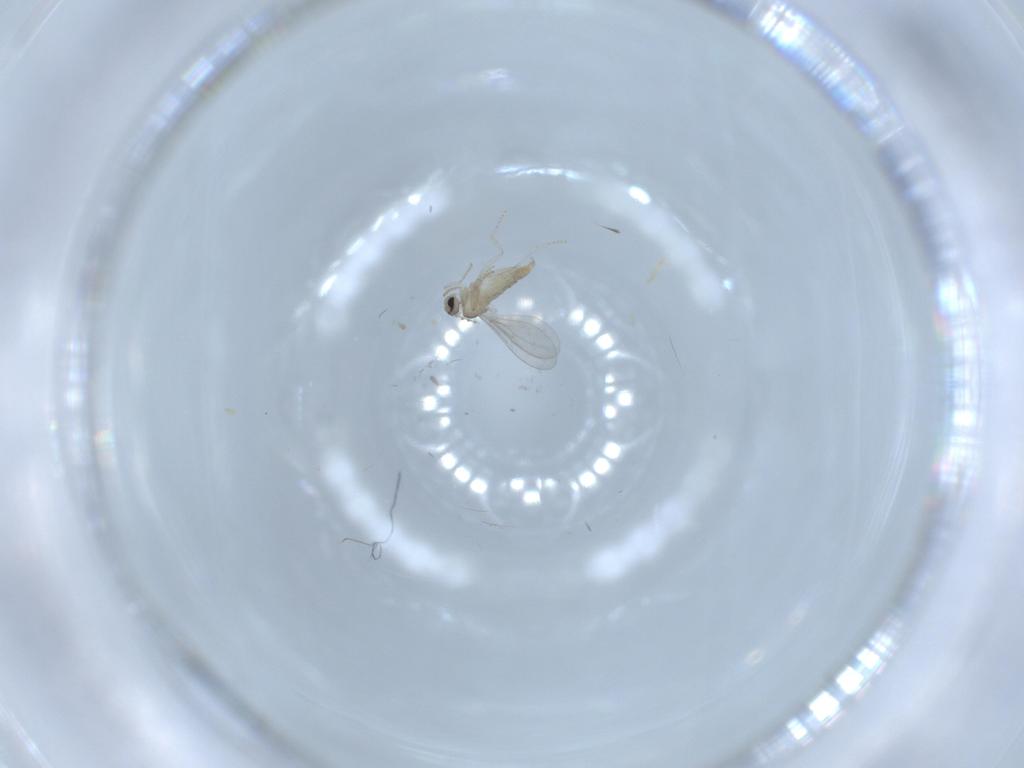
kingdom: Animalia
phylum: Arthropoda
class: Insecta
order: Diptera
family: Cecidomyiidae
